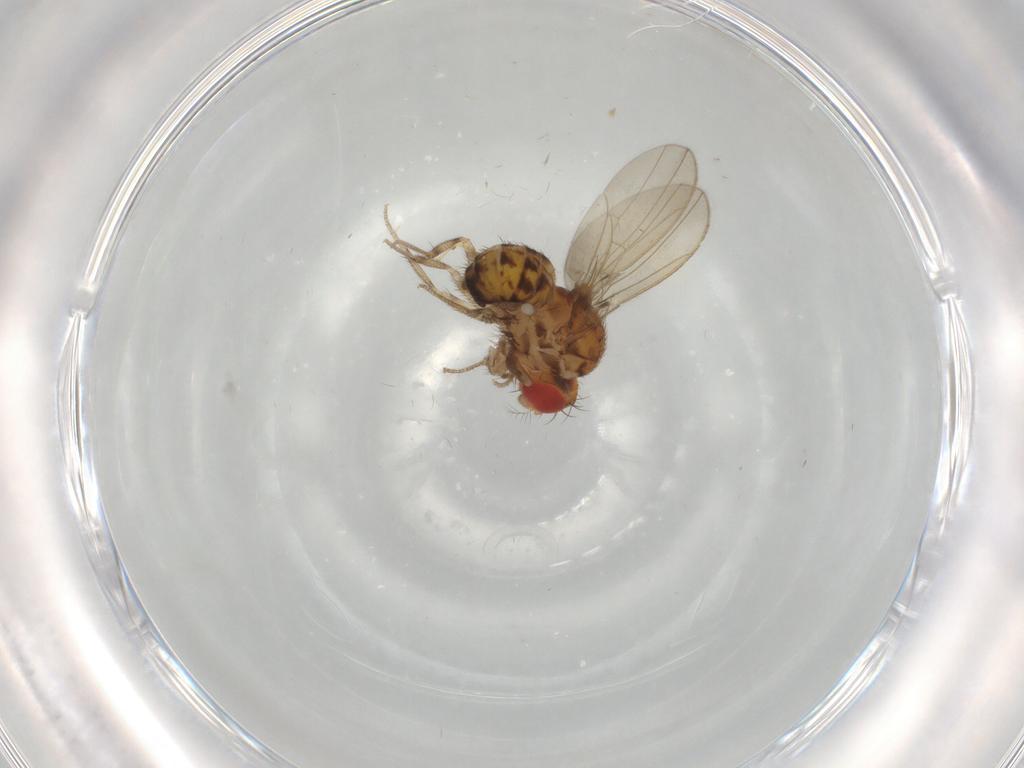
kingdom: Animalia
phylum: Arthropoda
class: Insecta
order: Diptera
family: Drosophilidae
